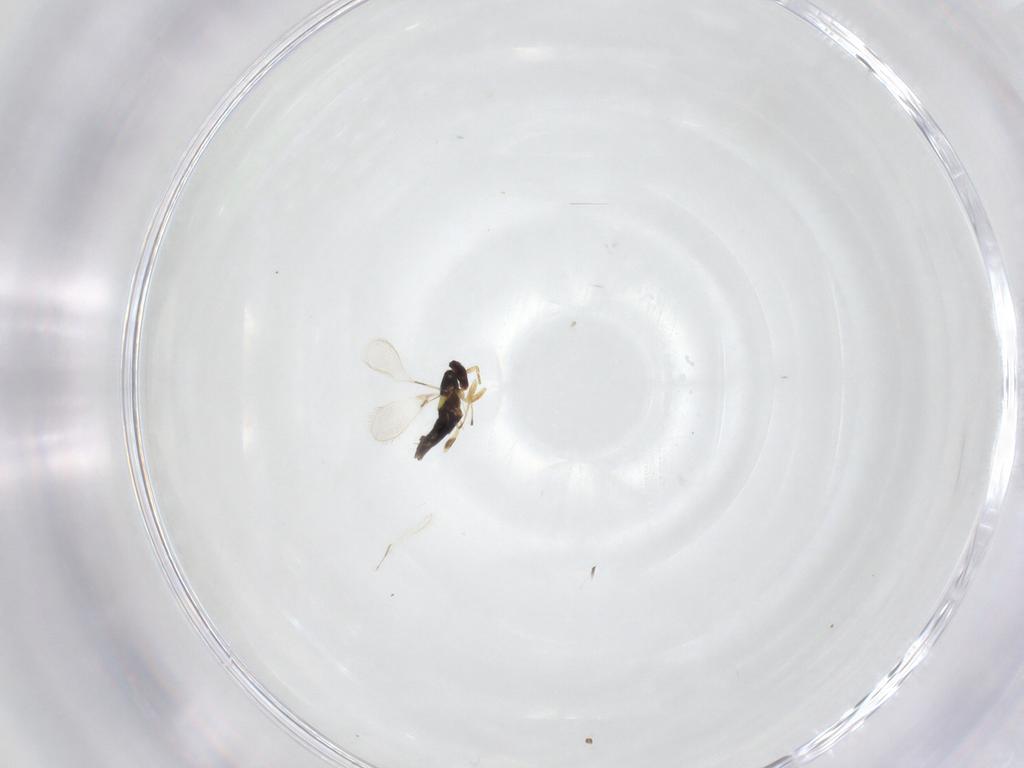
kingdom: Animalia
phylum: Arthropoda
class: Insecta
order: Hymenoptera
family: Mymaridae
